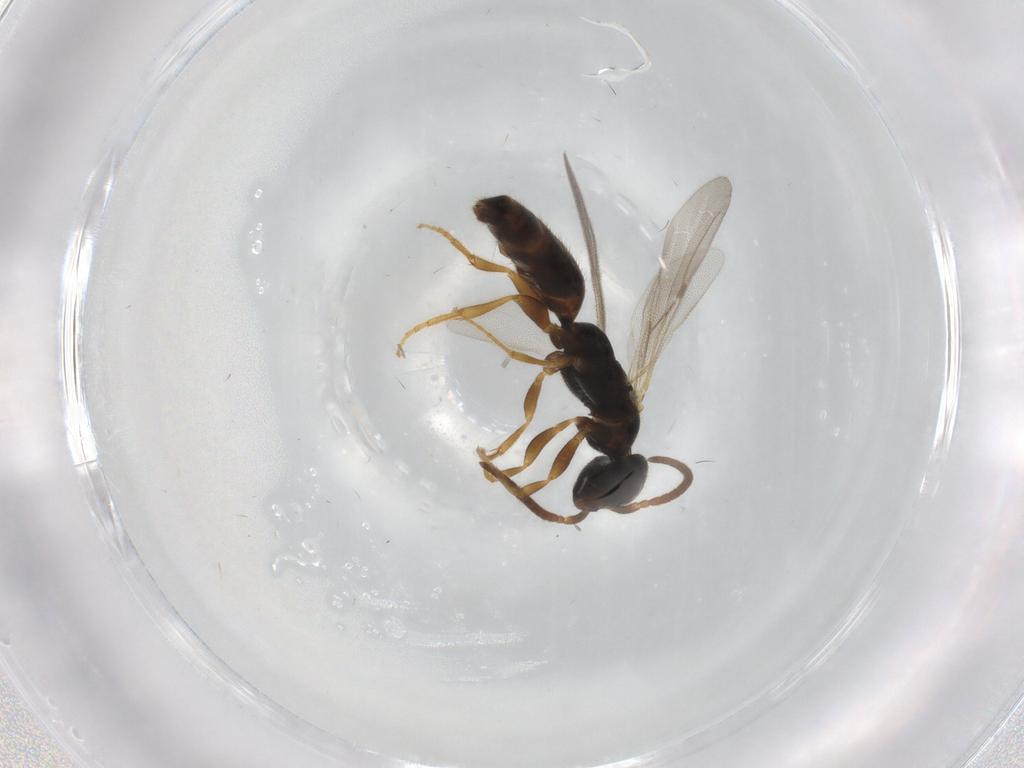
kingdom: Animalia
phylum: Arthropoda
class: Insecta
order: Hymenoptera
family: Bethylidae
